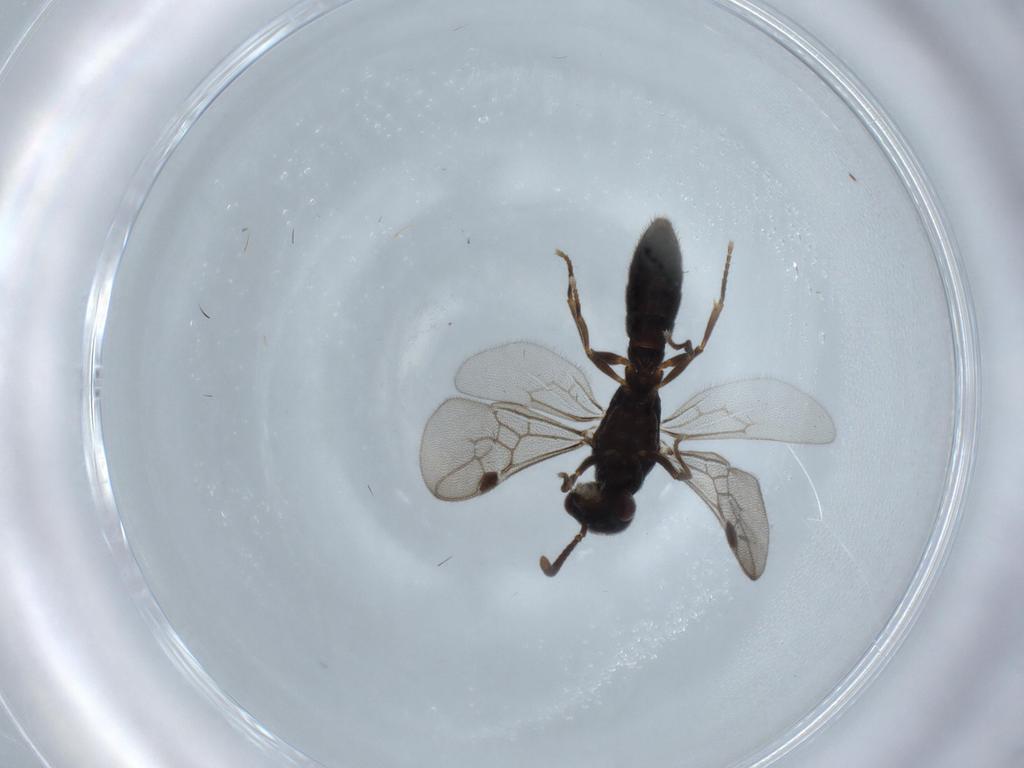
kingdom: Animalia
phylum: Arthropoda
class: Insecta
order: Hymenoptera
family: Formicidae
